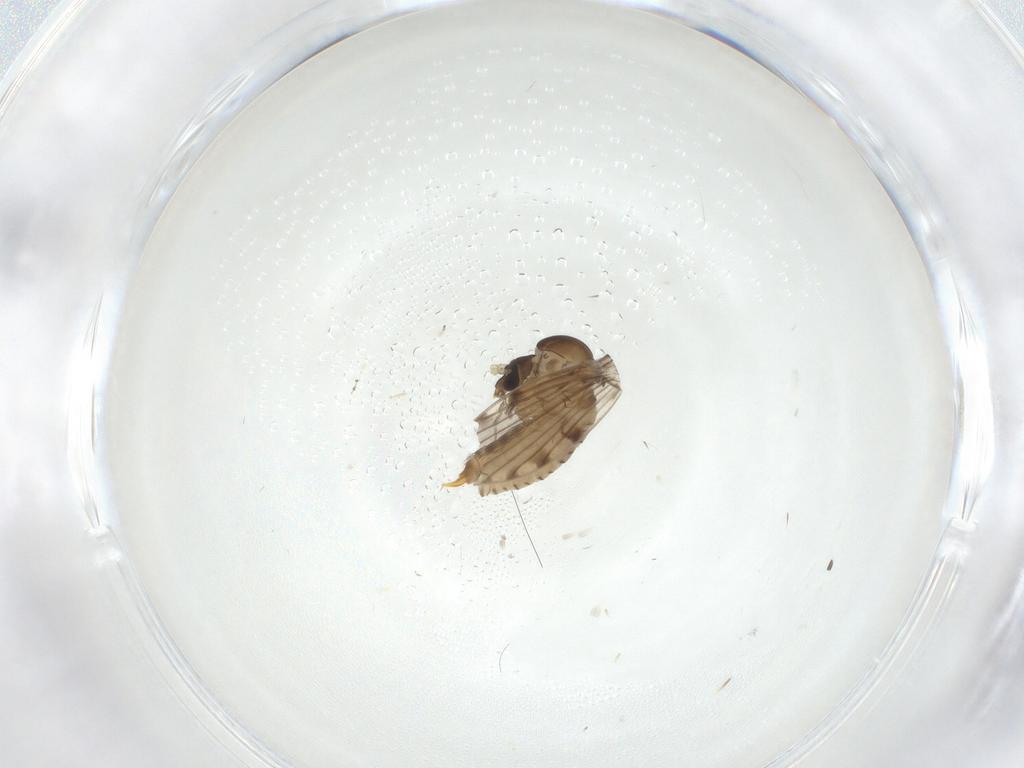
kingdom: Animalia
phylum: Arthropoda
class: Insecta
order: Diptera
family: Psychodidae
